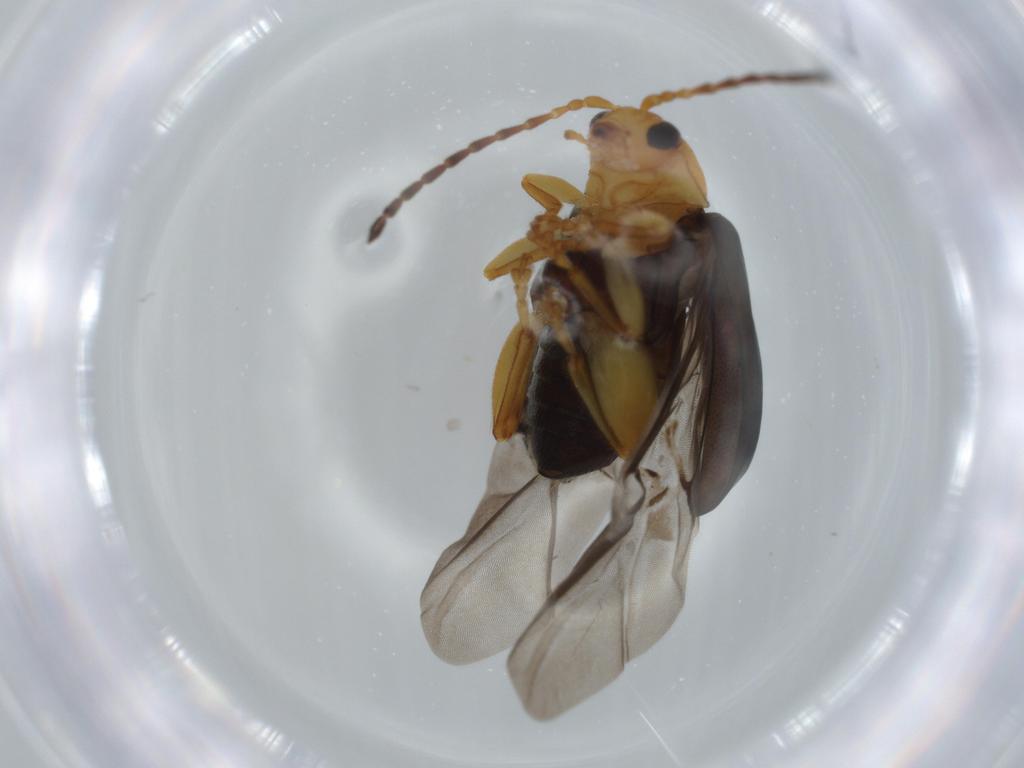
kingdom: Animalia
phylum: Arthropoda
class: Insecta
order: Coleoptera
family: Chrysomelidae
